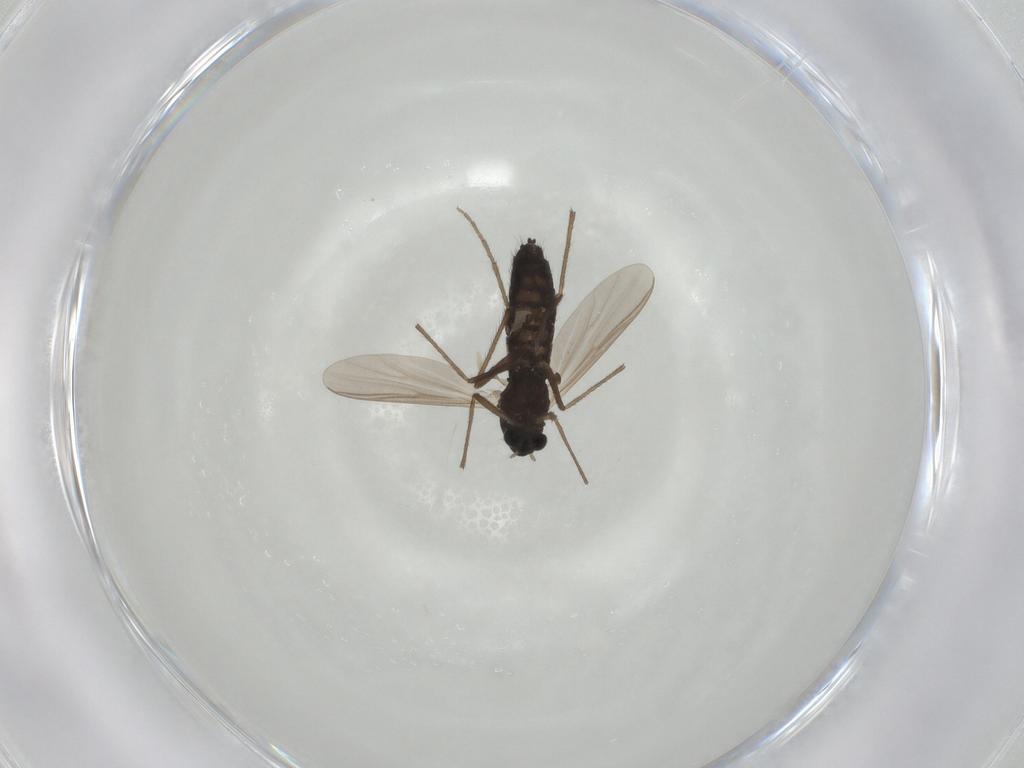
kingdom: Animalia
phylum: Arthropoda
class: Insecta
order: Diptera
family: Chironomidae
